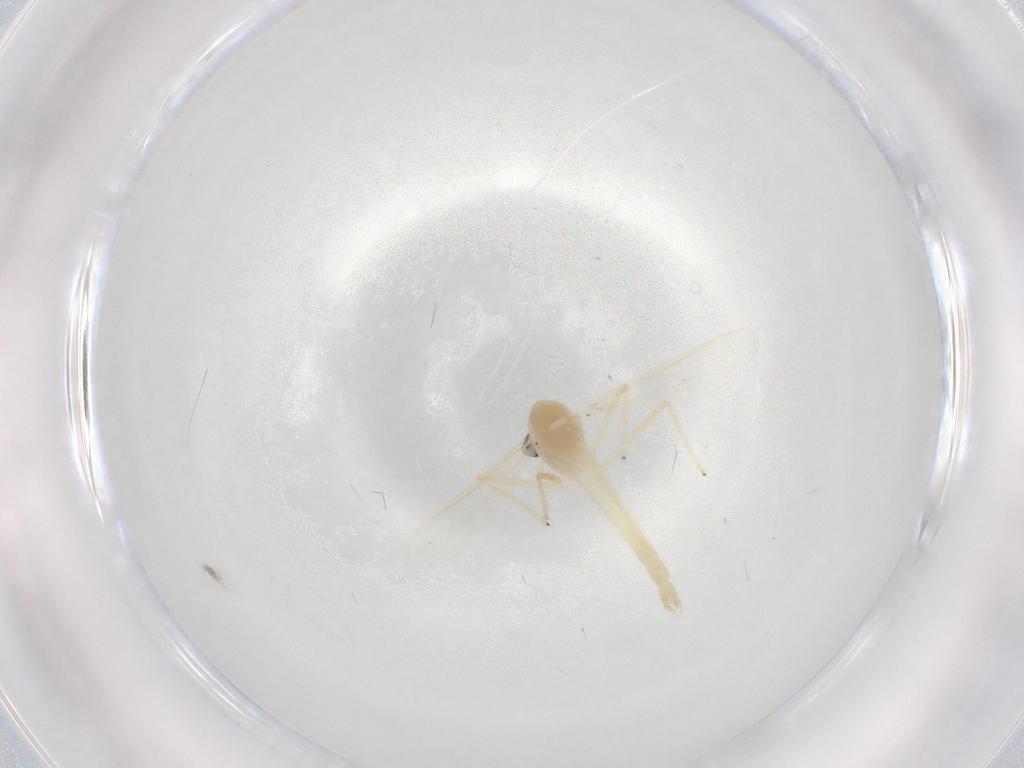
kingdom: Animalia
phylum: Arthropoda
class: Insecta
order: Diptera
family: Chironomidae
